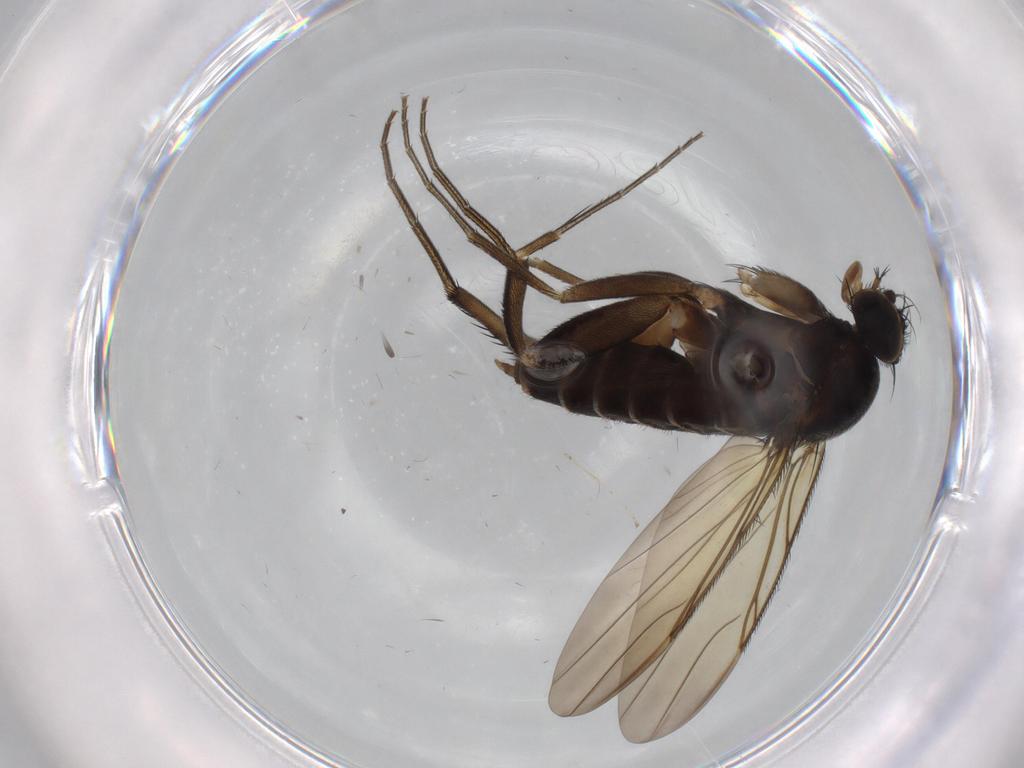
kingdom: Animalia
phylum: Arthropoda
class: Insecta
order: Diptera
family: Phoridae
